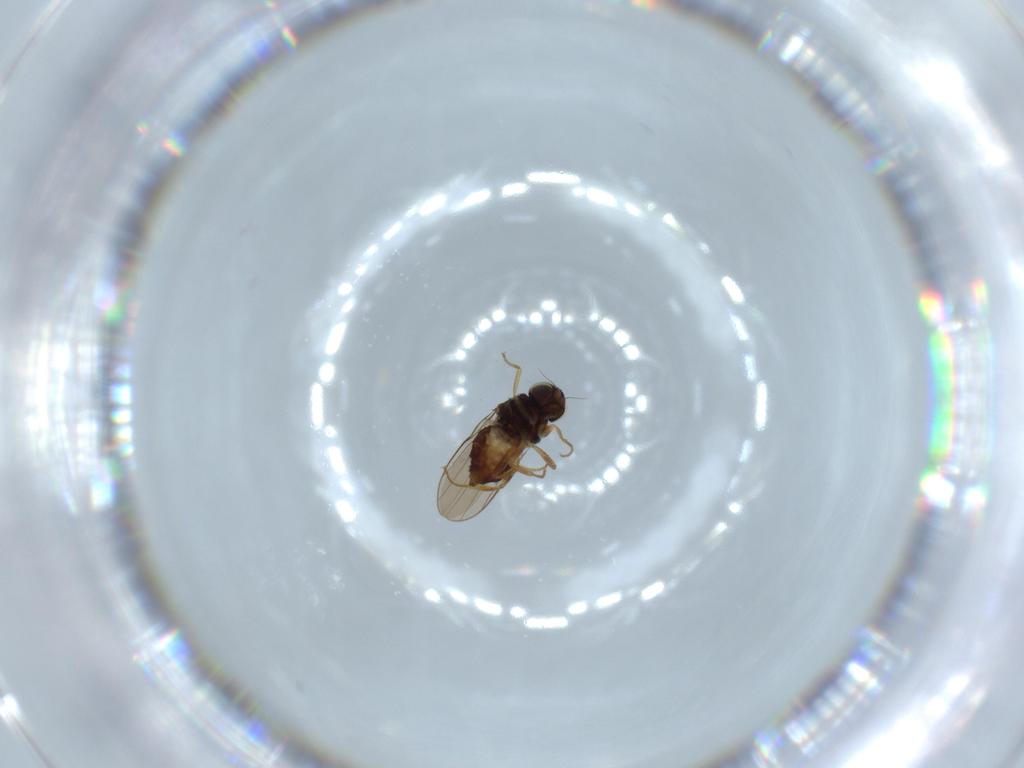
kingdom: Animalia
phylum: Arthropoda
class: Insecta
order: Diptera
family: Chloropidae
